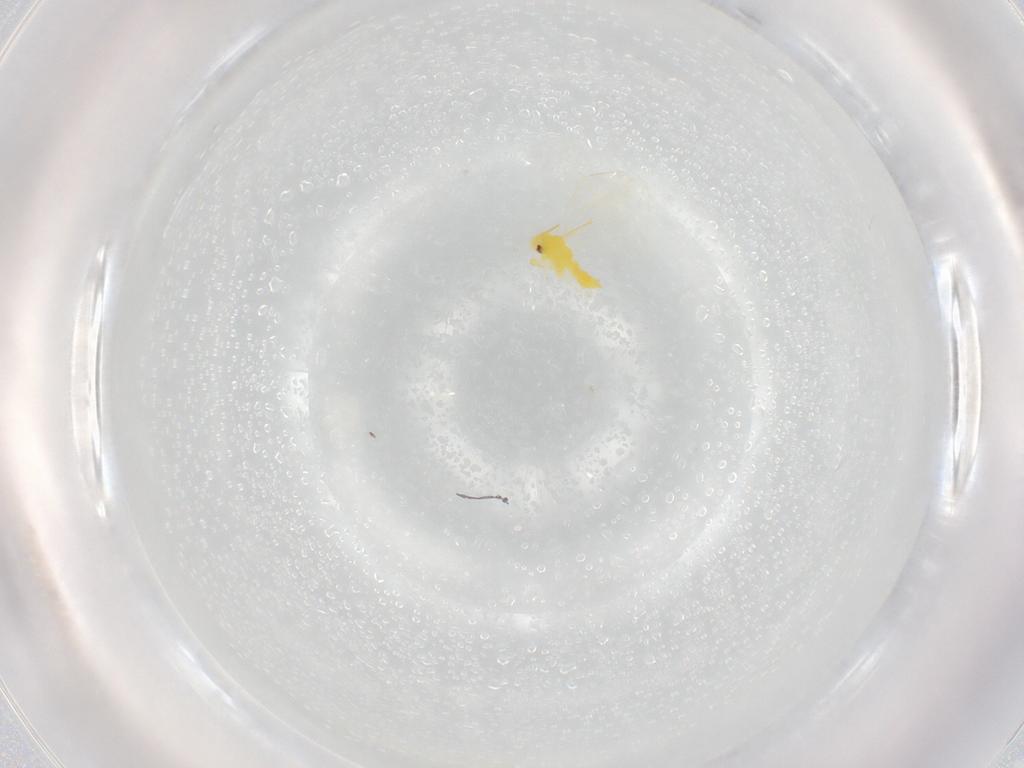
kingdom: Animalia
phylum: Arthropoda
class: Insecta
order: Hemiptera
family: Aleyrodidae
